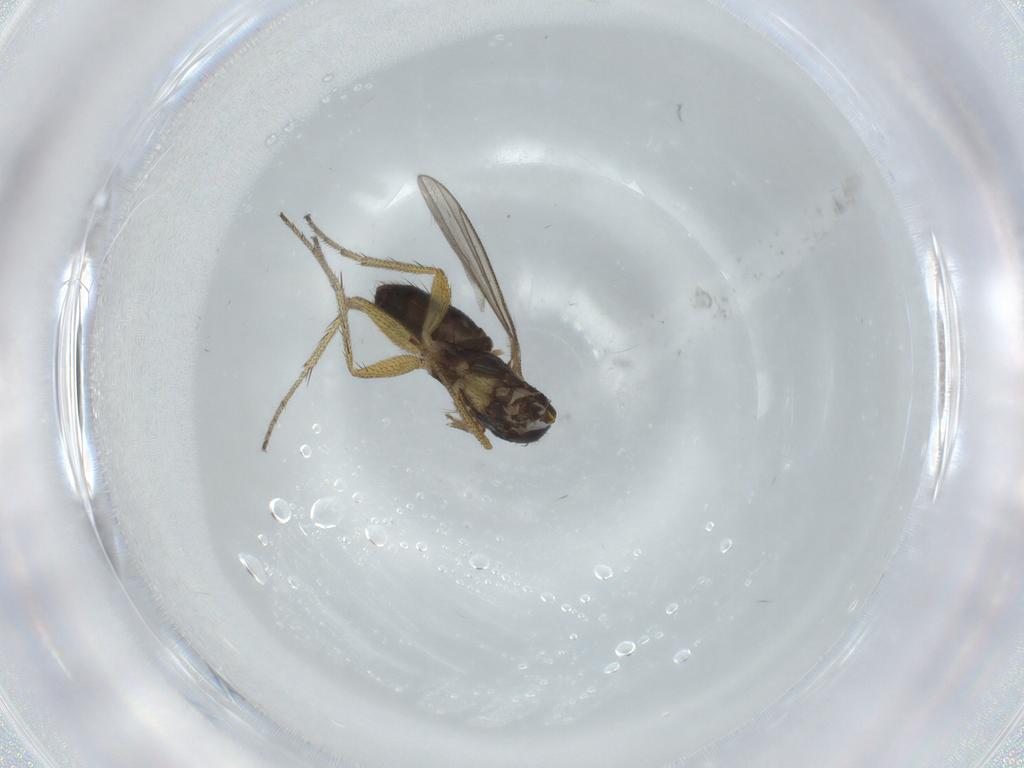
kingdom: Animalia
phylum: Arthropoda
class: Insecta
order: Diptera
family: Dolichopodidae
